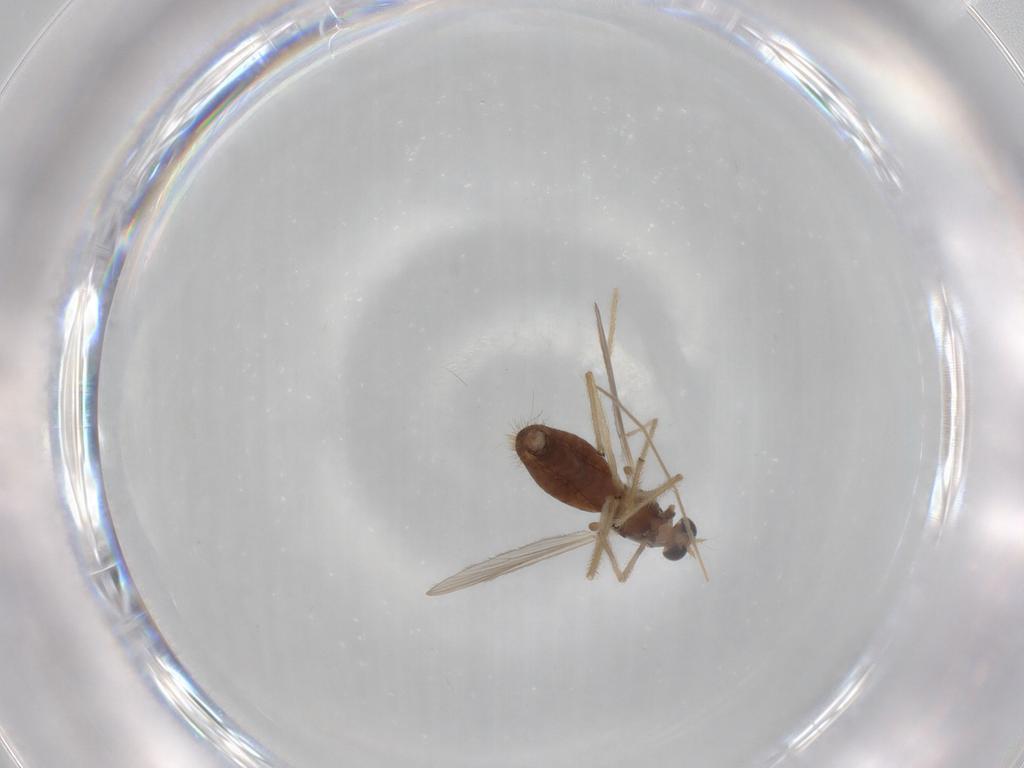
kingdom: Animalia
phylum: Arthropoda
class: Insecta
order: Diptera
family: Chironomidae
